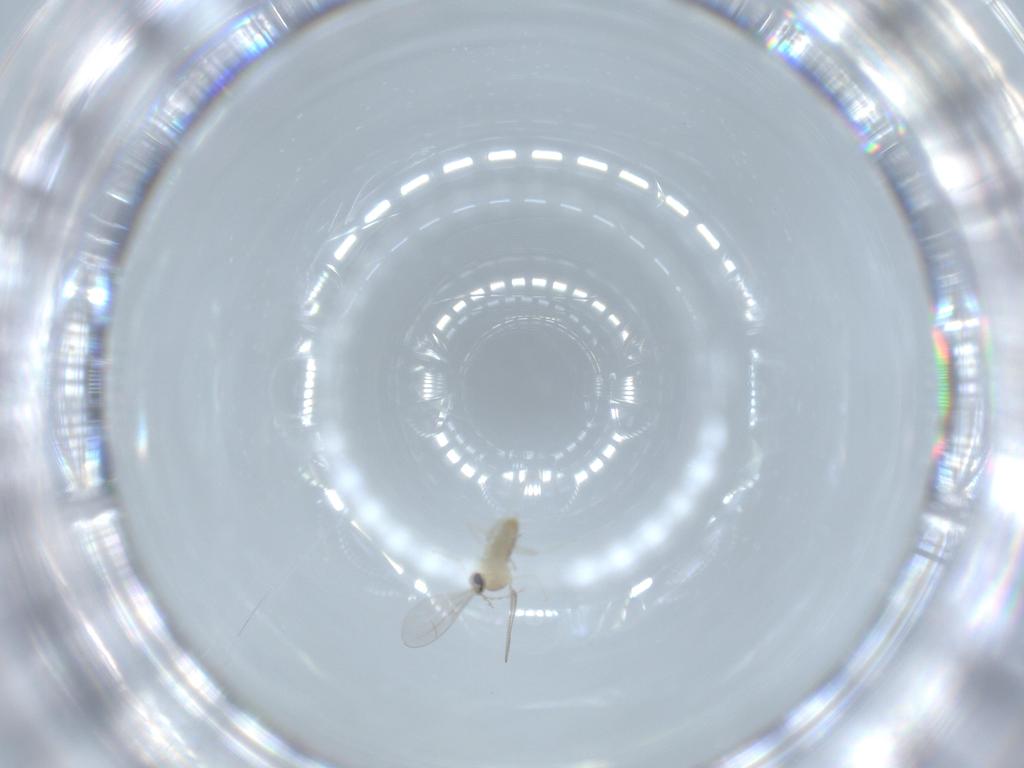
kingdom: Animalia
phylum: Arthropoda
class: Insecta
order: Diptera
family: Cecidomyiidae
